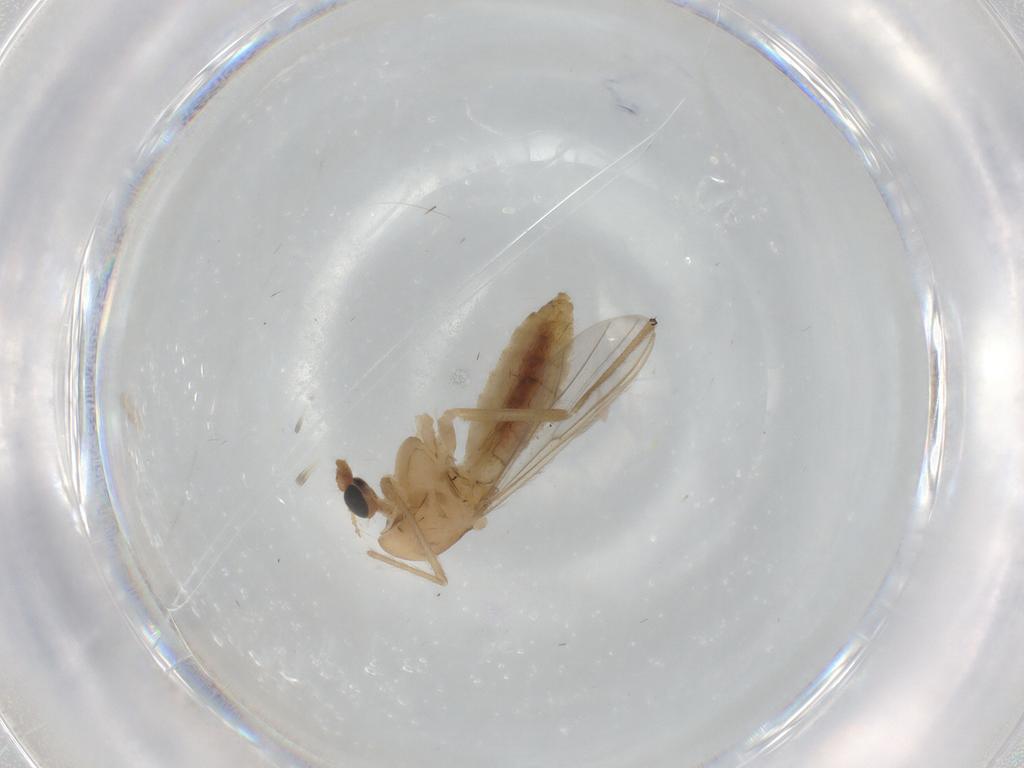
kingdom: Animalia
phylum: Arthropoda
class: Insecta
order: Diptera
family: Chironomidae
